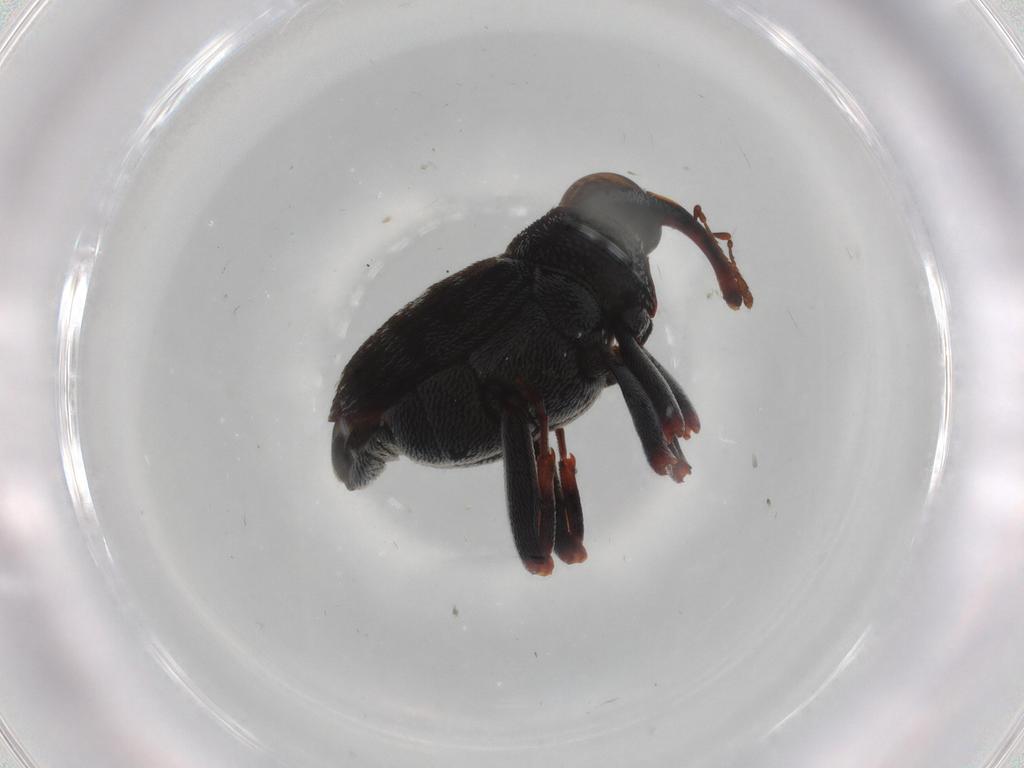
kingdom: Animalia
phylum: Arthropoda
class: Insecta
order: Coleoptera
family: Curculionidae
